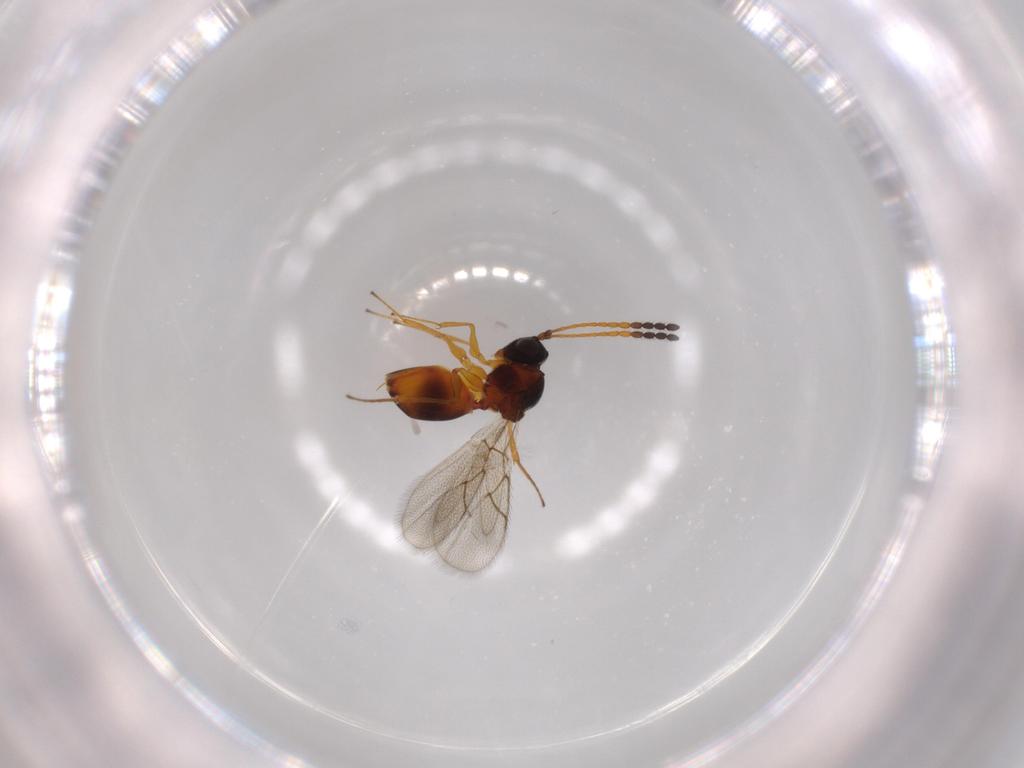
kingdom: Animalia
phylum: Arthropoda
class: Insecta
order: Hymenoptera
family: Figitidae
